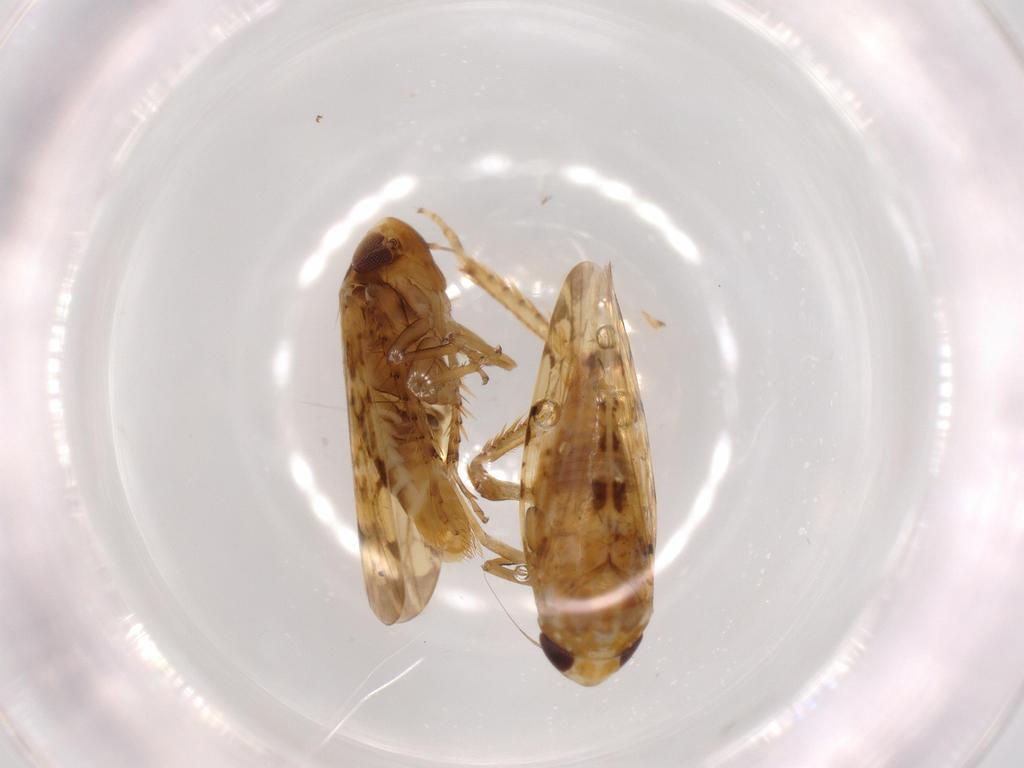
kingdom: Animalia
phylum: Arthropoda
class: Insecta
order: Hemiptera
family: Cicadellidae
